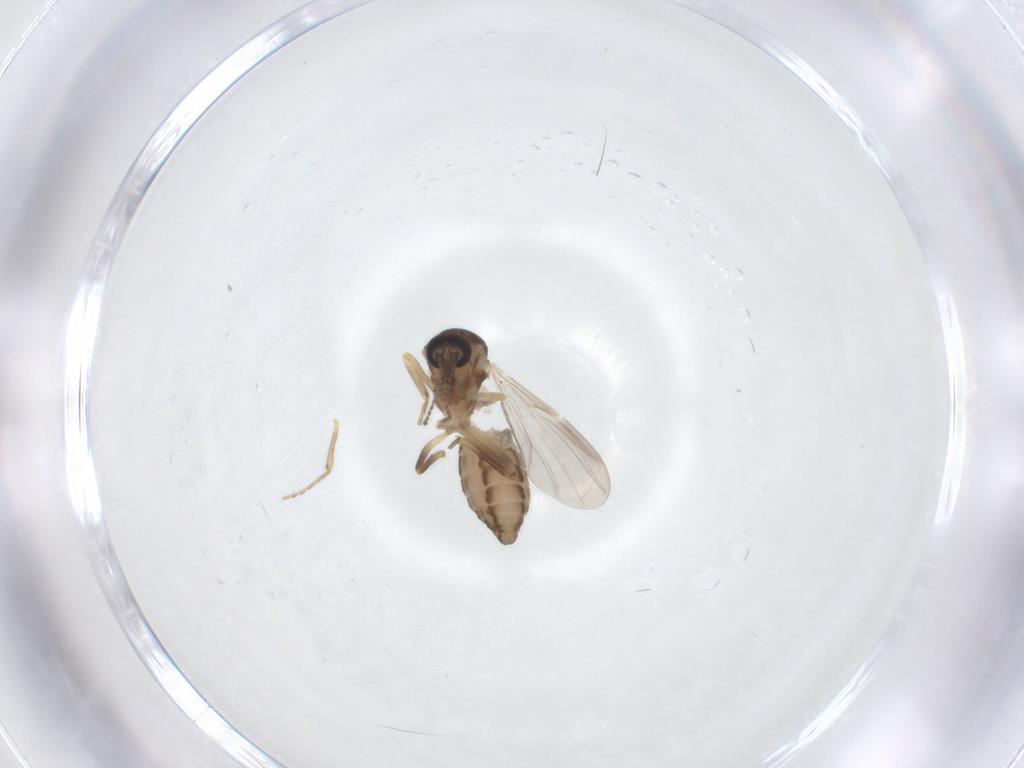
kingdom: Animalia
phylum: Arthropoda
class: Insecta
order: Diptera
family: Ceratopogonidae
